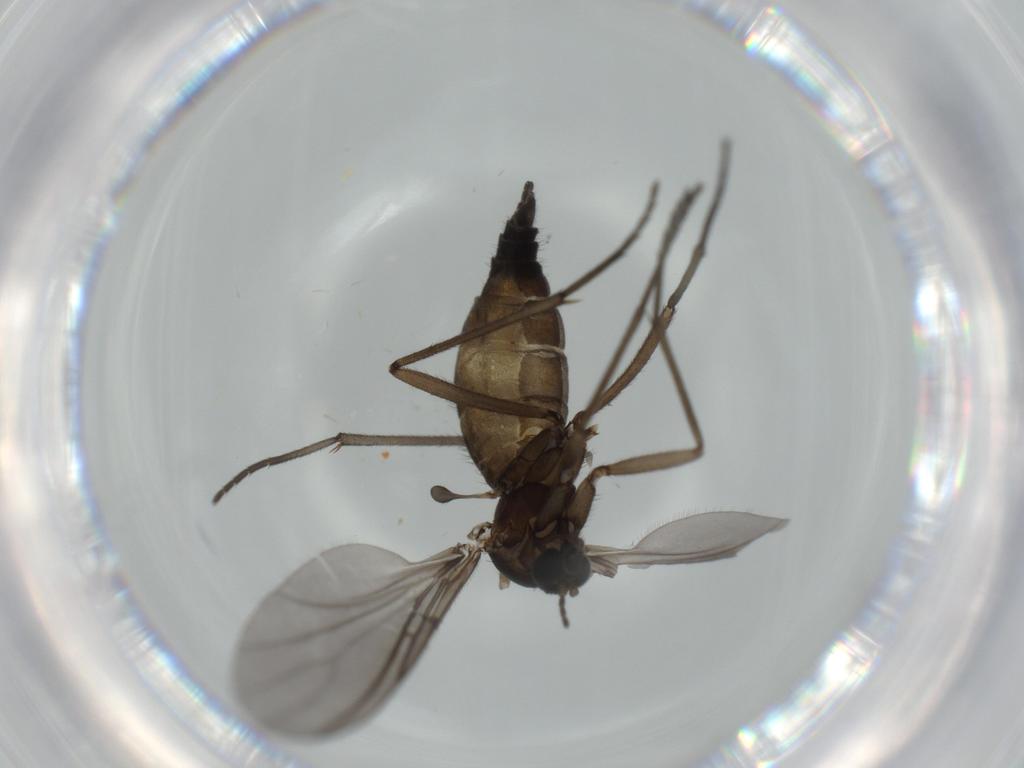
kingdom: Animalia
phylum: Arthropoda
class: Insecta
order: Diptera
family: Sciaridae
